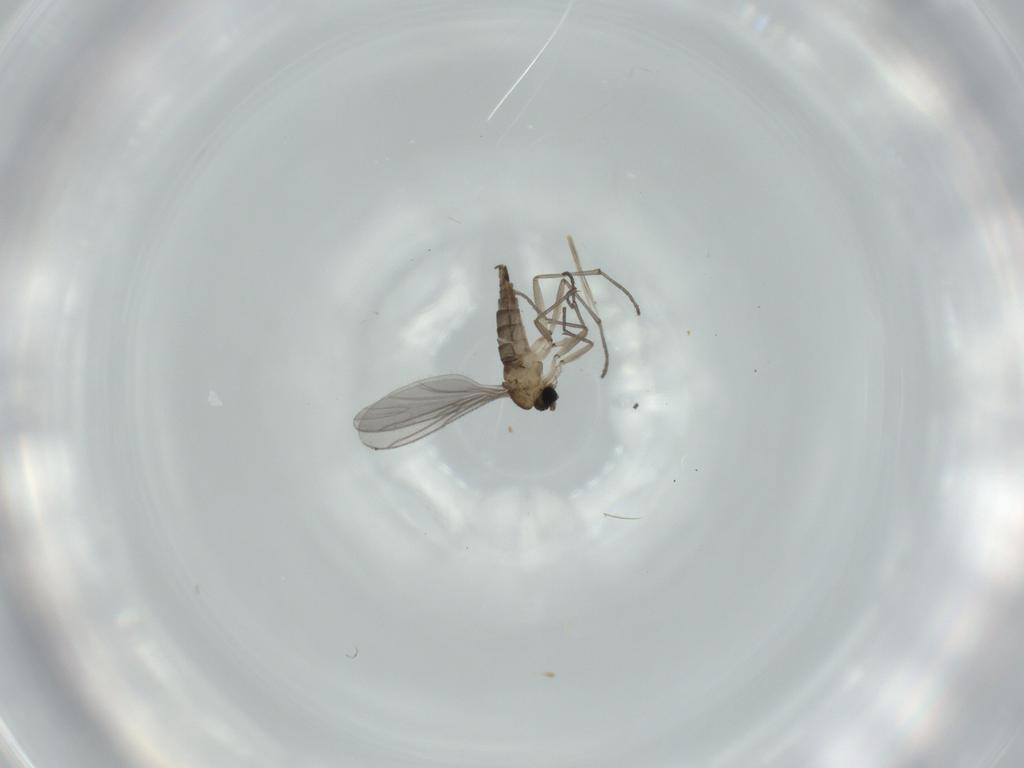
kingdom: Animalia
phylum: Arthropoda
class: Insecta
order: Diptera
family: Sciaridae
